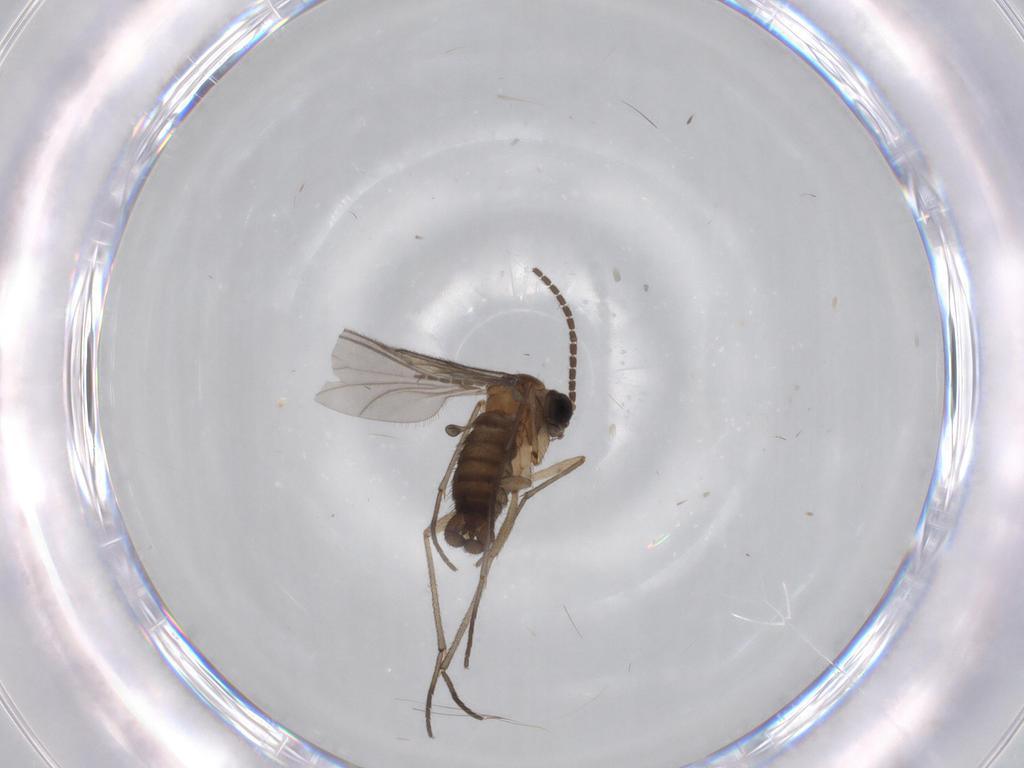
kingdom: Animalia
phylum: Arthropoda
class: Insecta
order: Diptera
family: Sciaridae
